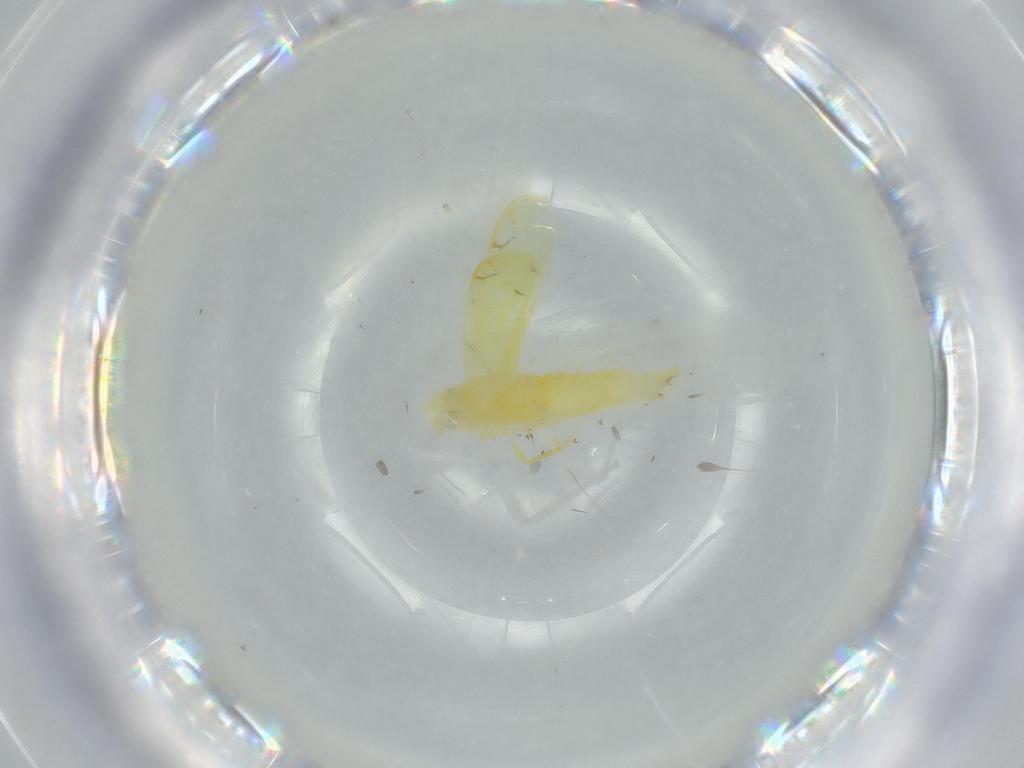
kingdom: Animalia
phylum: Arthropoda
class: Insecta
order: Hemiptera
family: Cicadellidae
